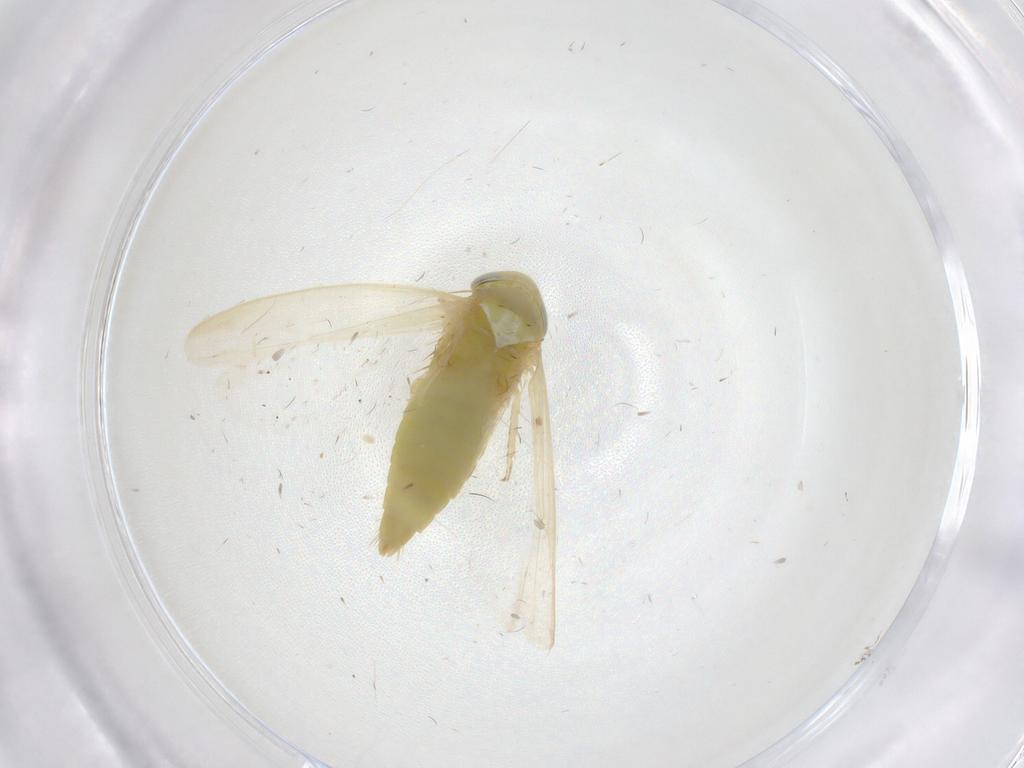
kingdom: Animalia
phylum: Arthropoda
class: Insecta
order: Hemiptera
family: Cicadellidae
